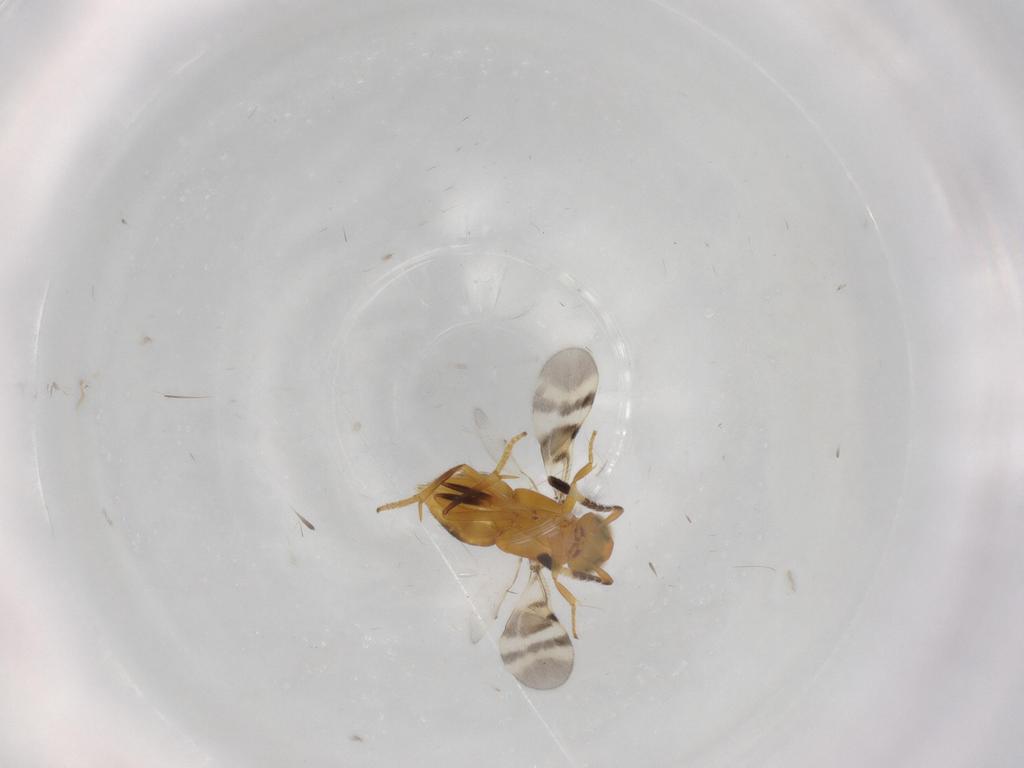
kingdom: Animalia
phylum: Arthropoda
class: Insecta
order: Hymenoptera
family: Encyrtidae
